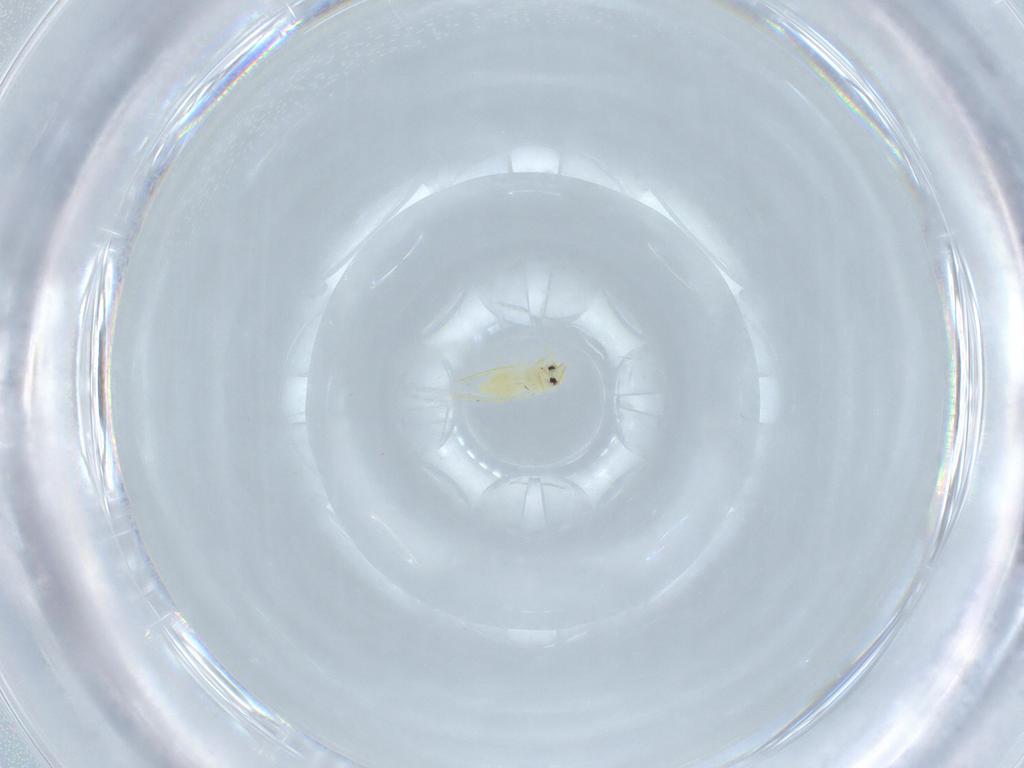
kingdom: Animalia
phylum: Arthropoda
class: Insecta
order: Hemiptera
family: Aleyrodidae
